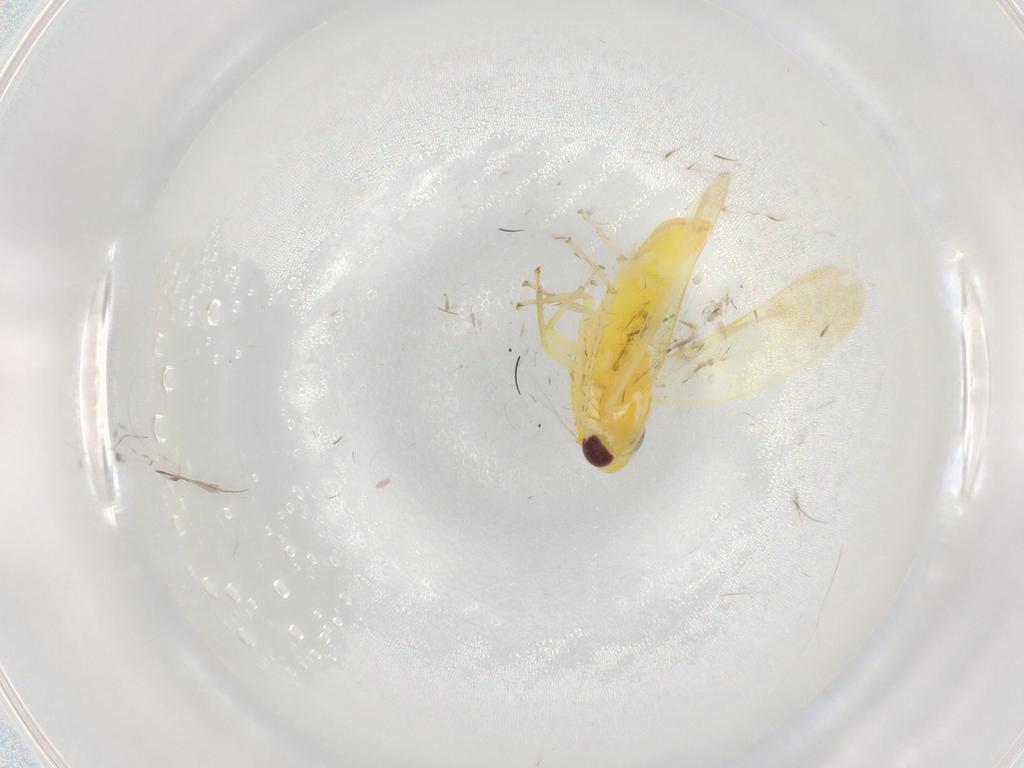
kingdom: Animalia
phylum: Arthropoda
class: Insecta
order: Hemiptera
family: Cicadellidae
